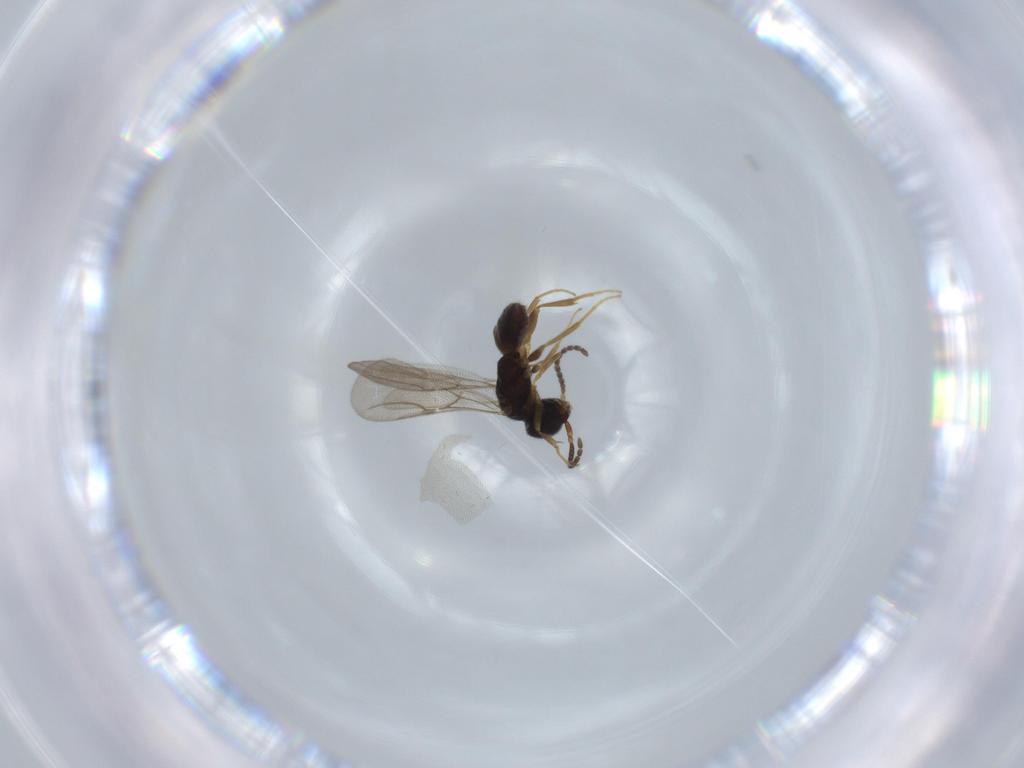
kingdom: Animalia
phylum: Arthropoda
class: Insecta
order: Hymenoptera
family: Bethylidae
